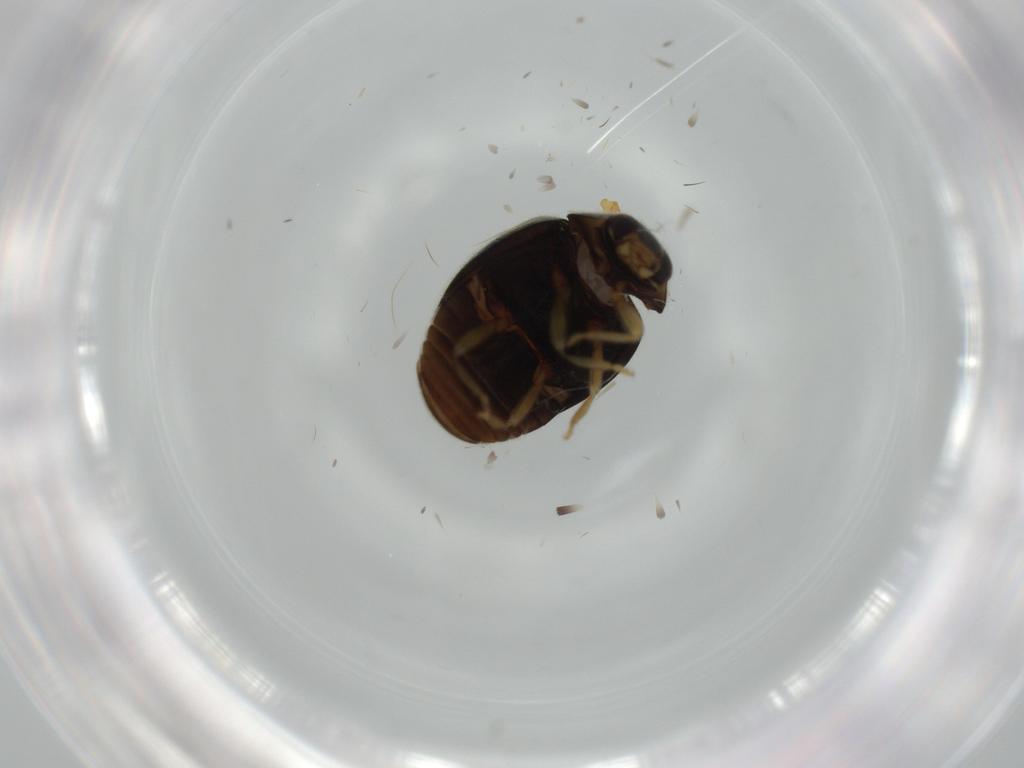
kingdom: Animalia
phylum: Arthropoda
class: Insecta
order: Coleoptera
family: Coccinellidae
